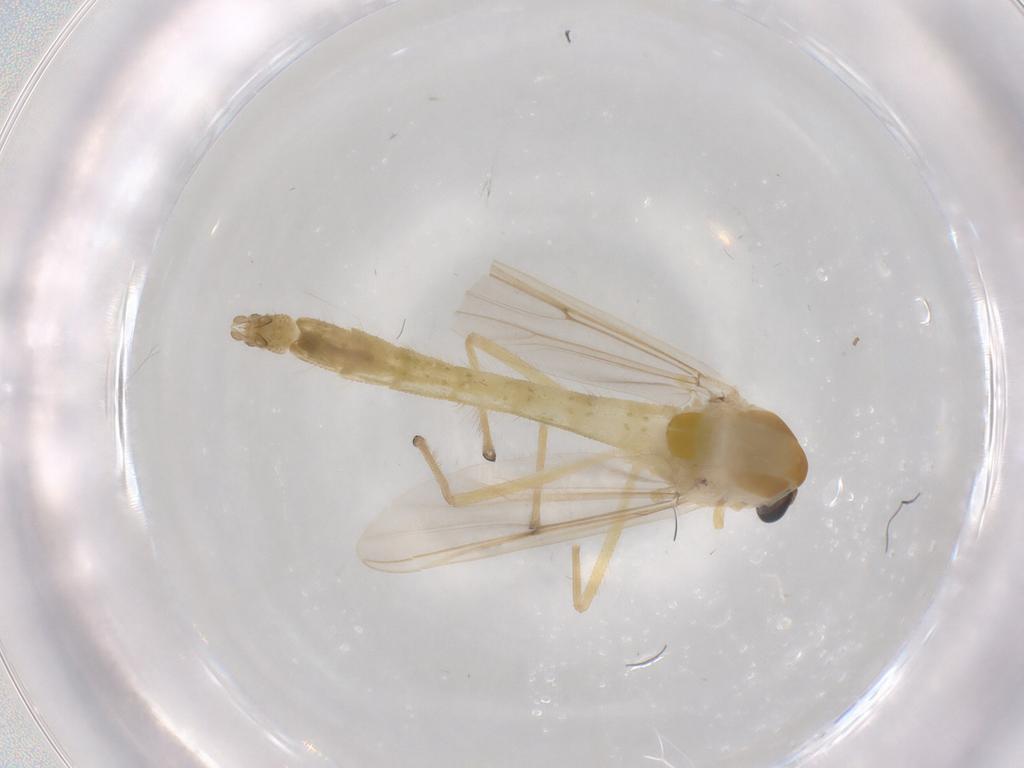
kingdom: Animalia
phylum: Arthropoda
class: Insecta
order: Diptera
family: Chironomidae
